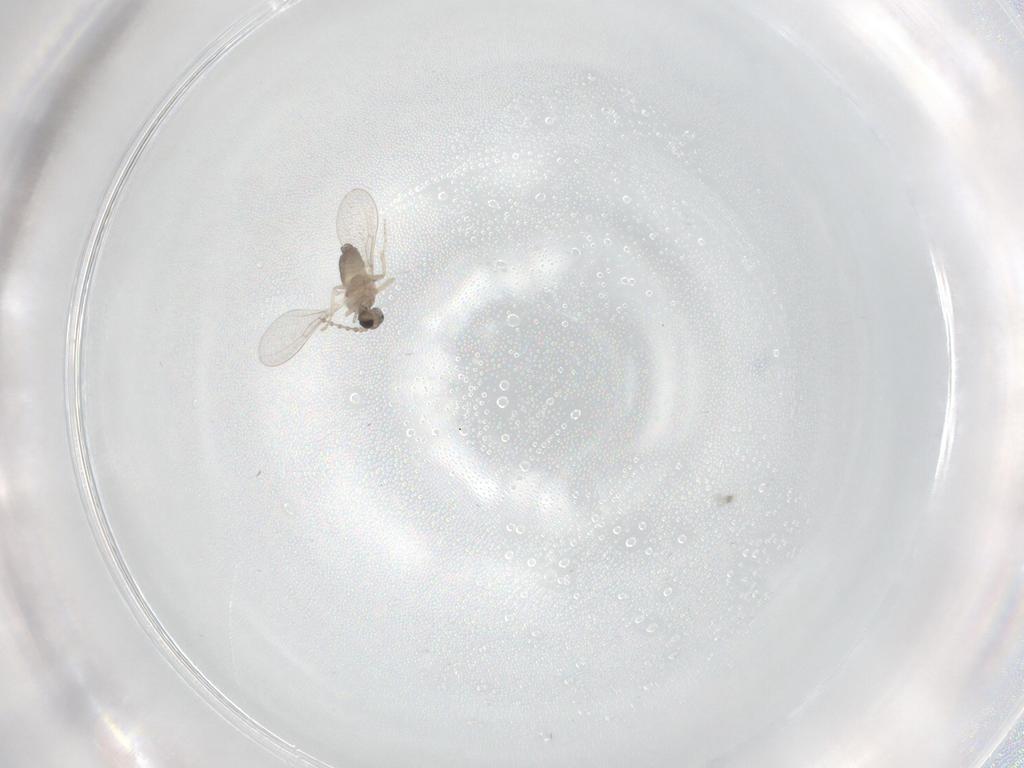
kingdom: Animalia
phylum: Arthropoda
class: Insecta
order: Diptera
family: Cecidomyiidae
